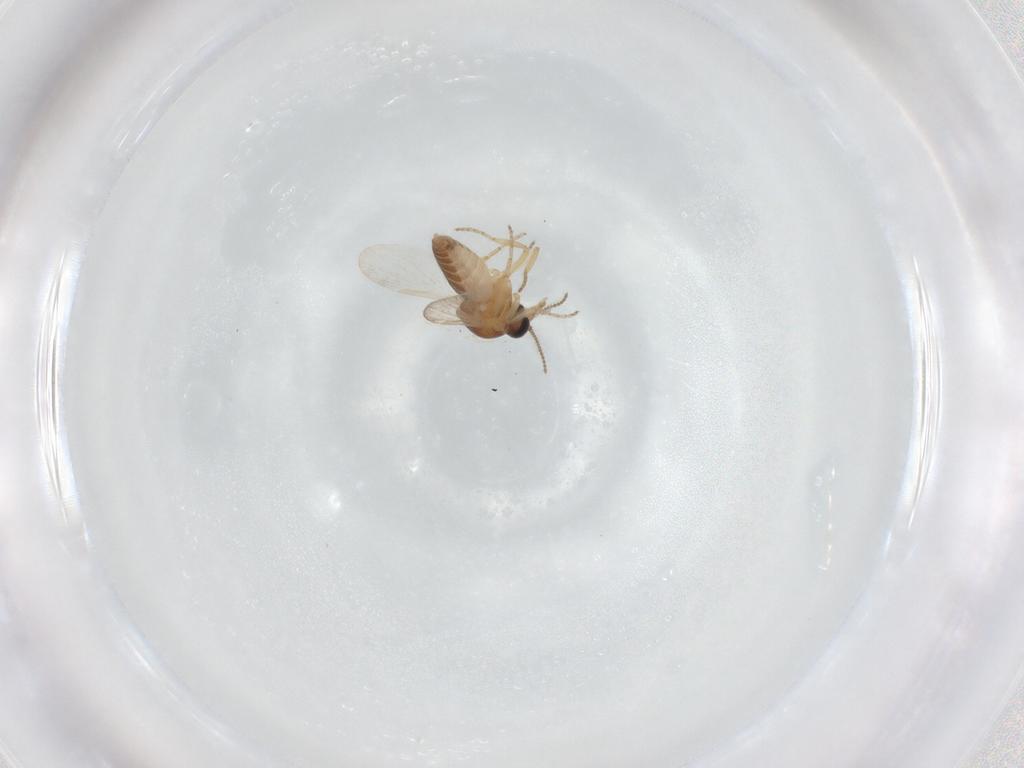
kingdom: Animalia
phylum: Arthropoda
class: Insecta
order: Diptera
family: Ceratopogonidae
